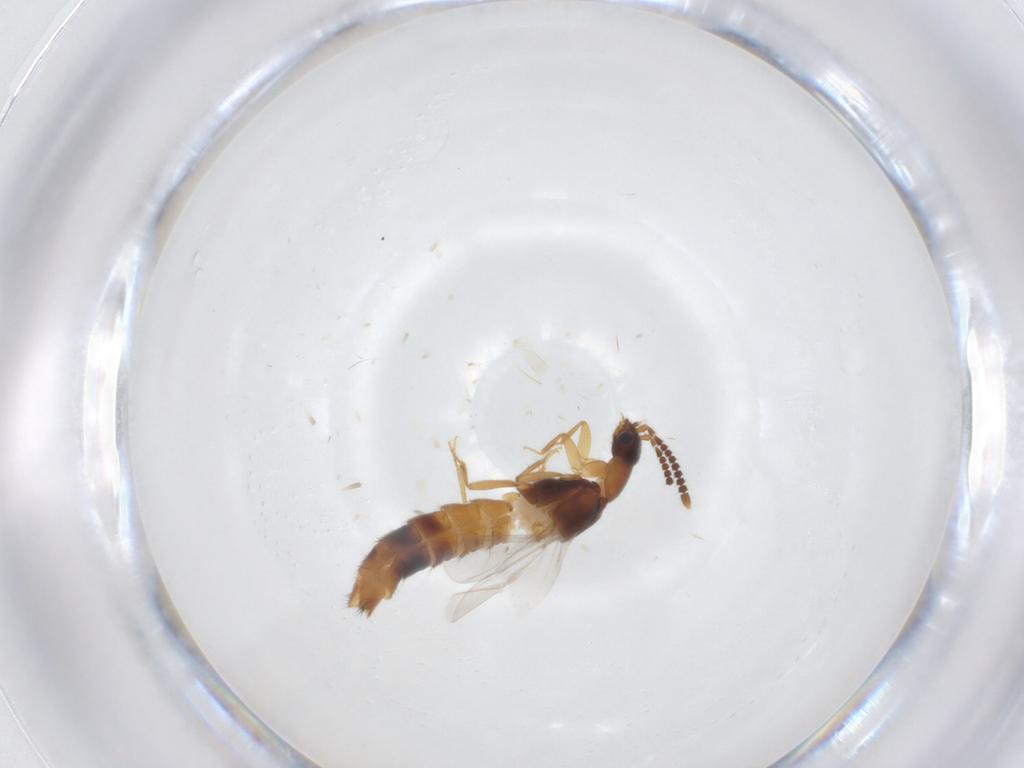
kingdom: Animalia
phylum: Arthropoda
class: Insecta
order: Coleoptera
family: Staphylinidae
